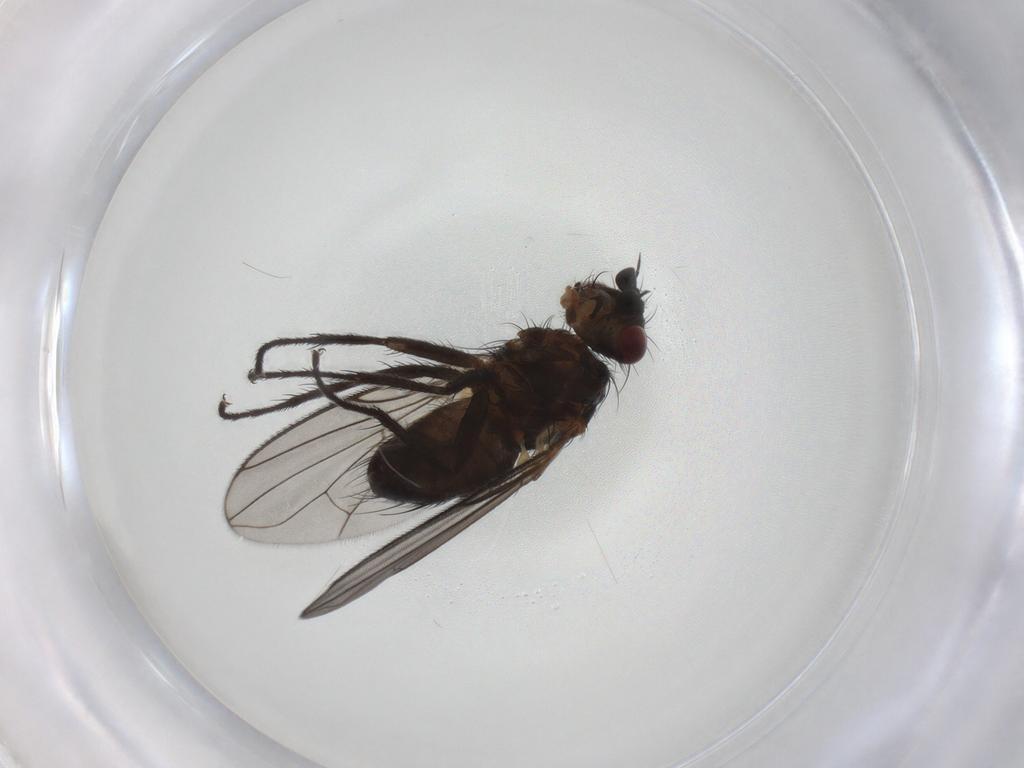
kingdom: Animalia
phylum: Arthropoda
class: Insecta
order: Diptera
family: Tachinidae
